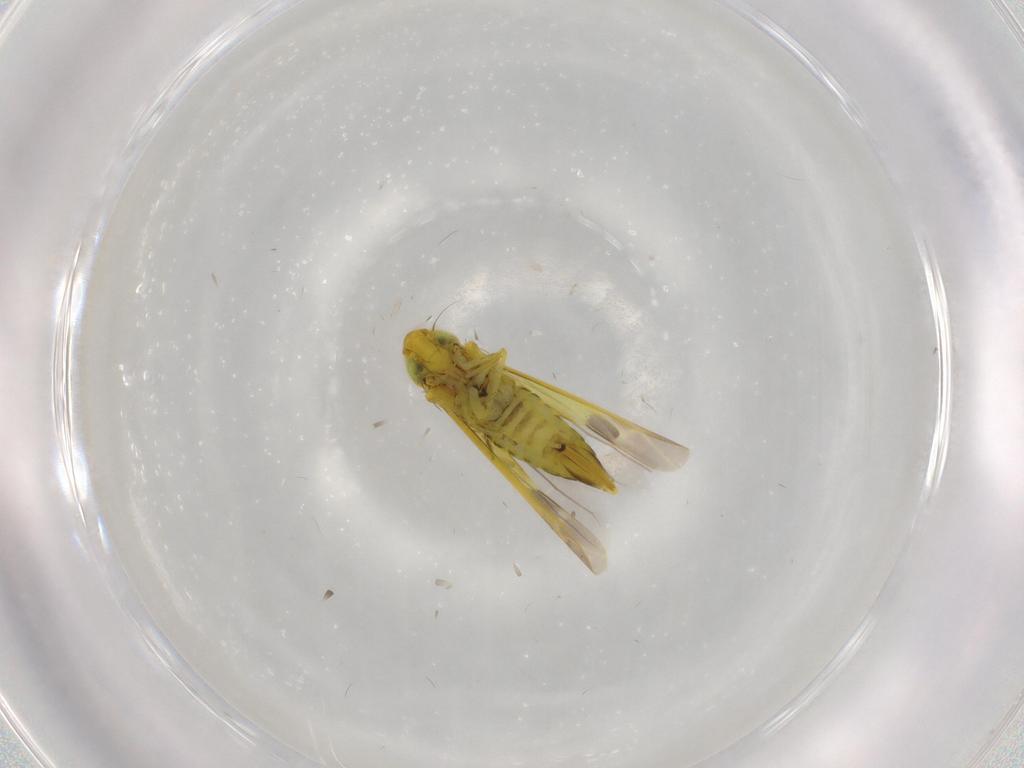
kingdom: Animalia
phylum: Arthropoda
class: Insecta
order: Hemiptera
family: Cicadellidae
